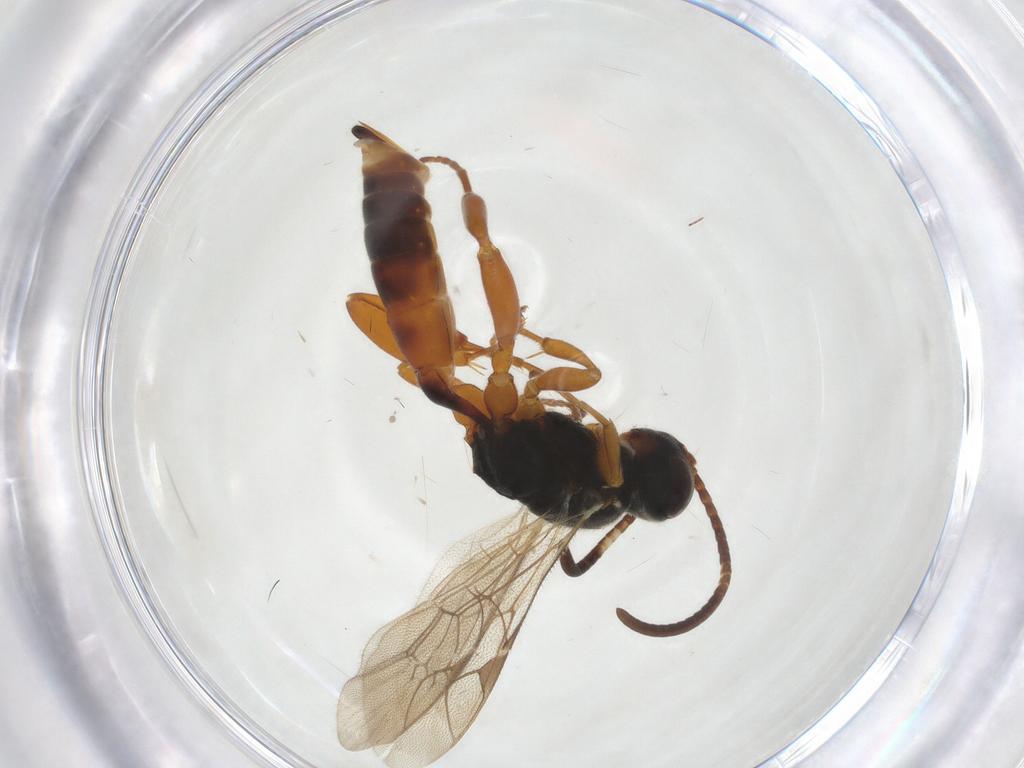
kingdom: Animalia
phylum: Arthropoda
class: Insecta
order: Hymenoptera
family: Ichneumonidae
